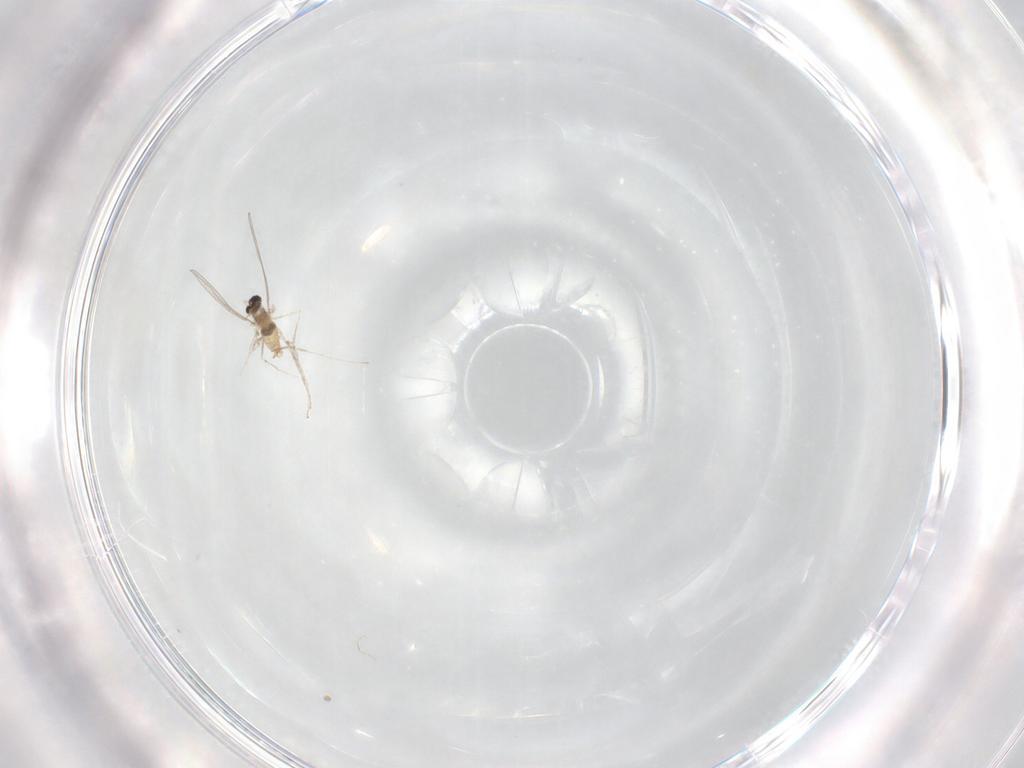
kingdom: Animalia
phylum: Arthropoda
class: Insecta
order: Diptera
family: Cecidomyiidae
